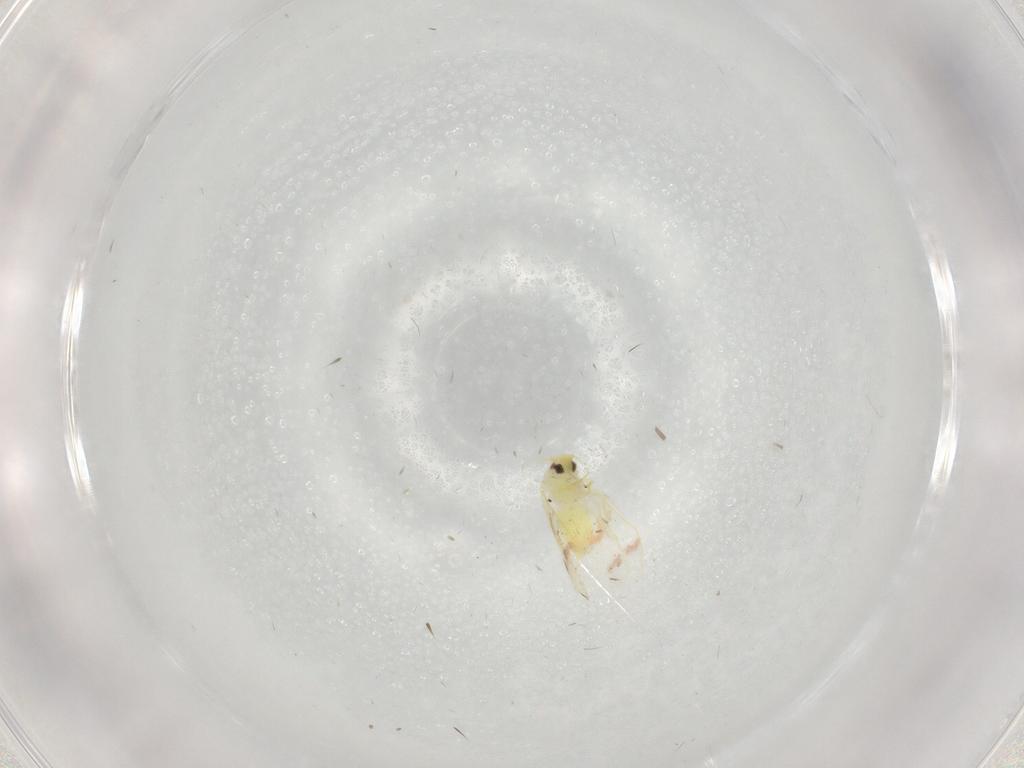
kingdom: Animalia
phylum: Arthropoda
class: Insecta
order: Hemiptera
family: Aleyrodidae
